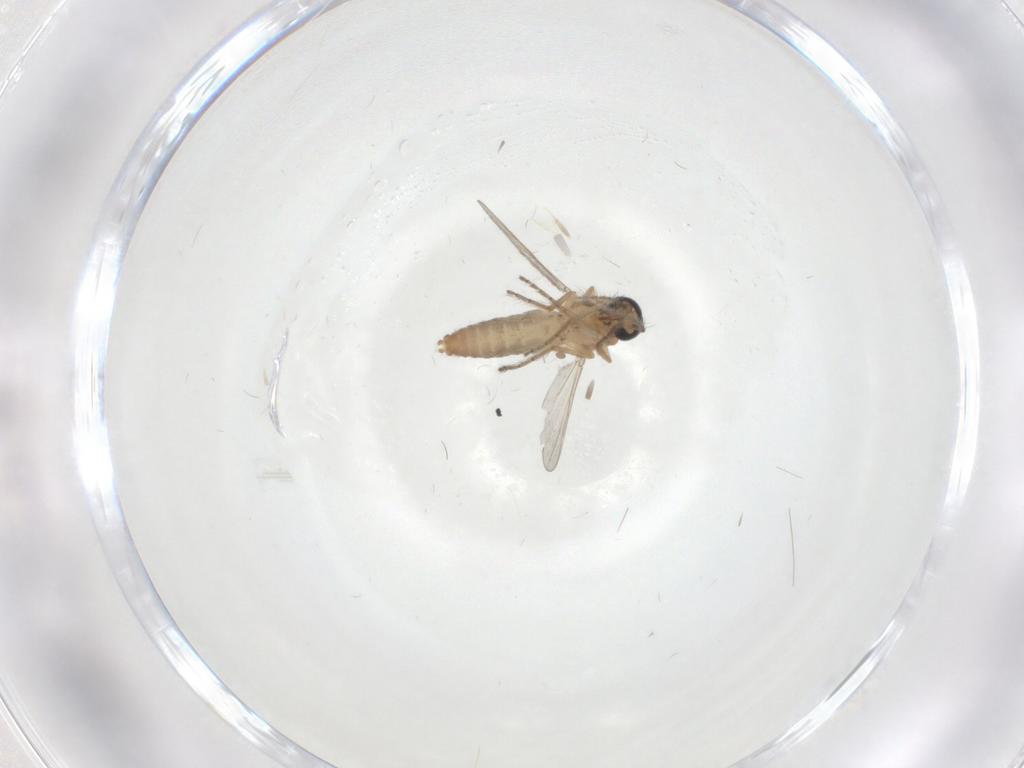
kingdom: Animalia
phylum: Arthropoda
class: Insecta
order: Diptera
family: Ceratopogonidae
